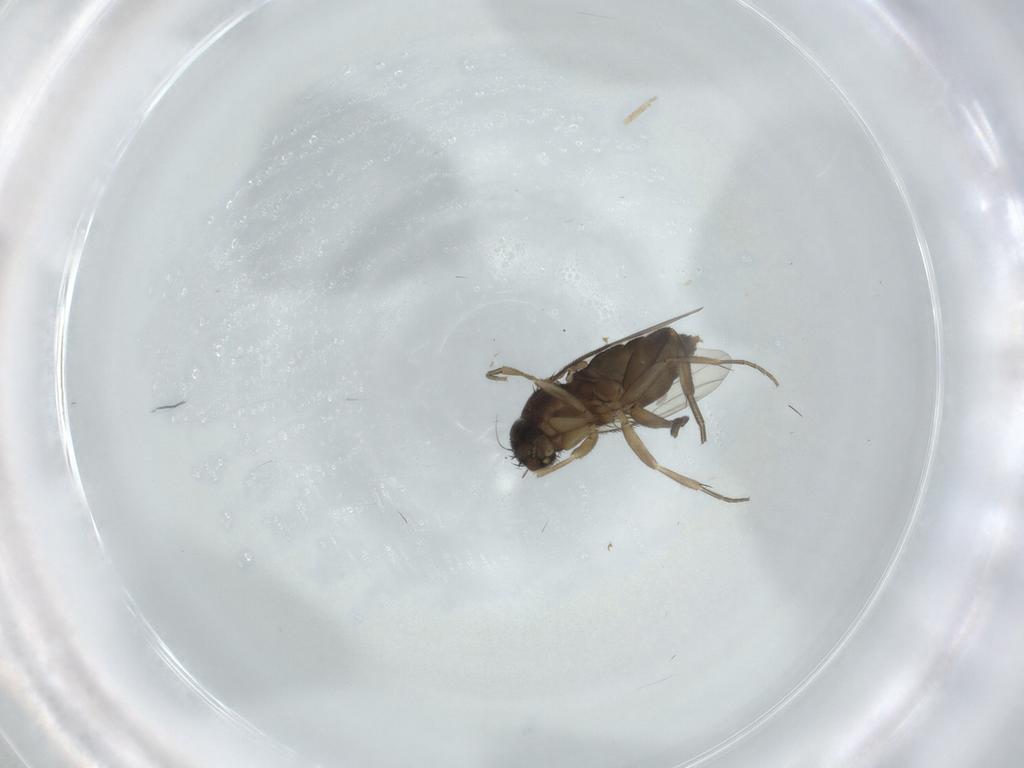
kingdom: Animalia
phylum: Arthropoda
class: Insecta
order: Diptera
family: Phoridae
